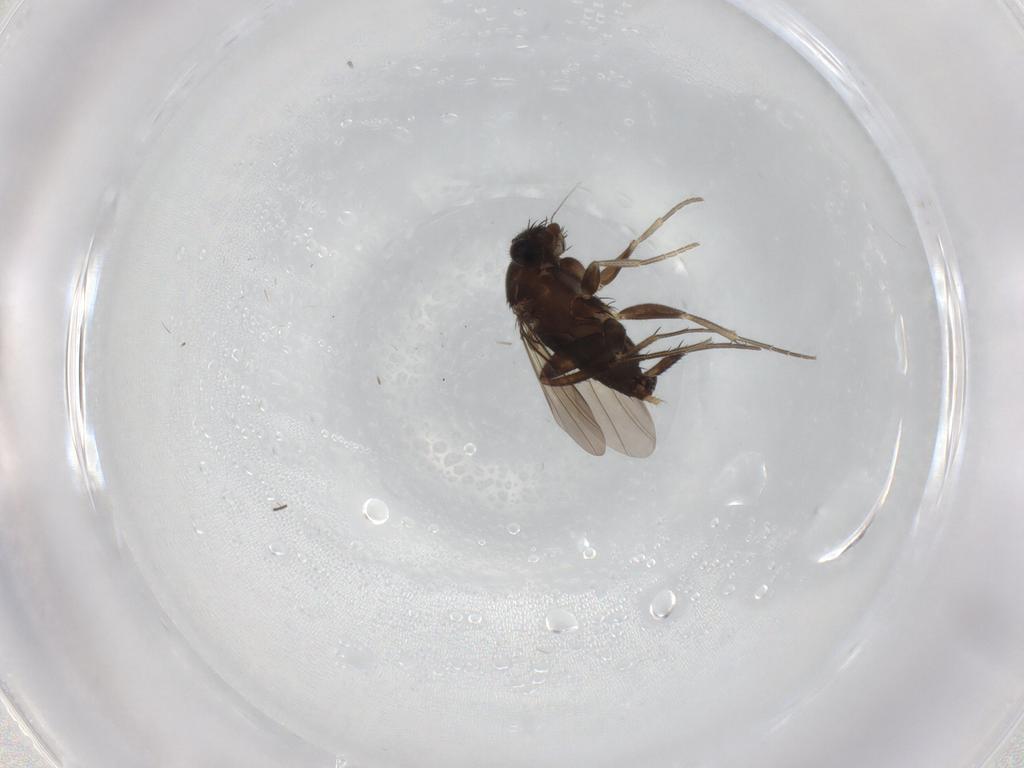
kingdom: Animalia
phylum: Arthropoda
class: Insecta
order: Diptera
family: Phoridae
